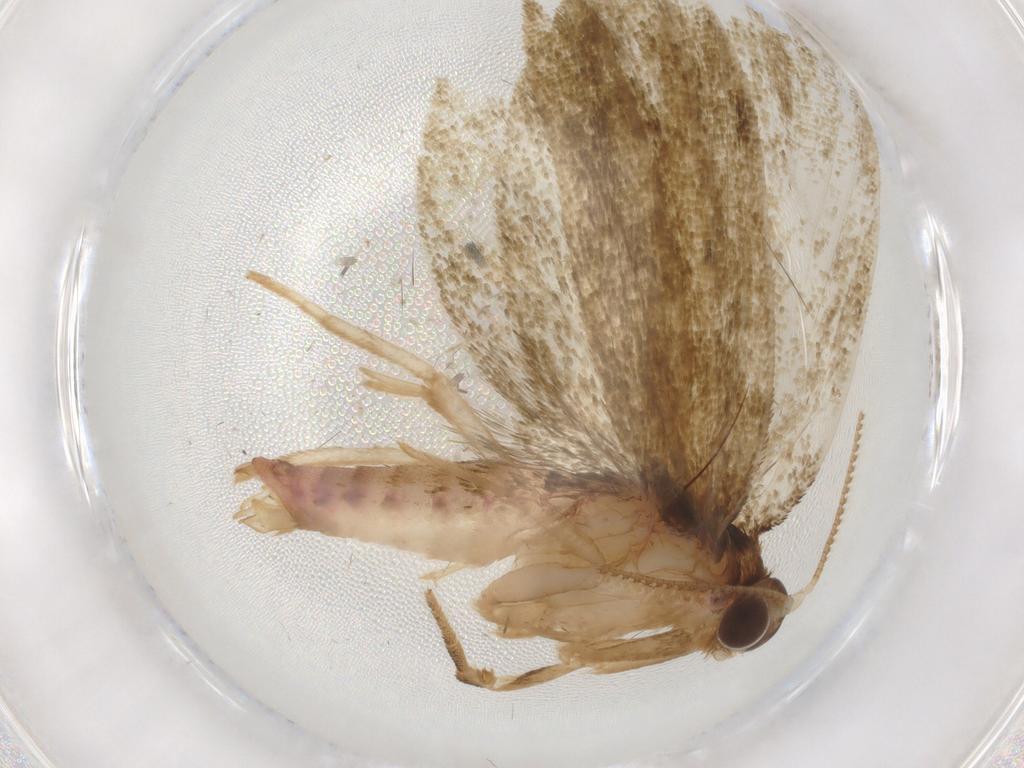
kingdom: Animalia
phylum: Arthropoda
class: Insecta
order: Lepidoptera
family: Geometridae
